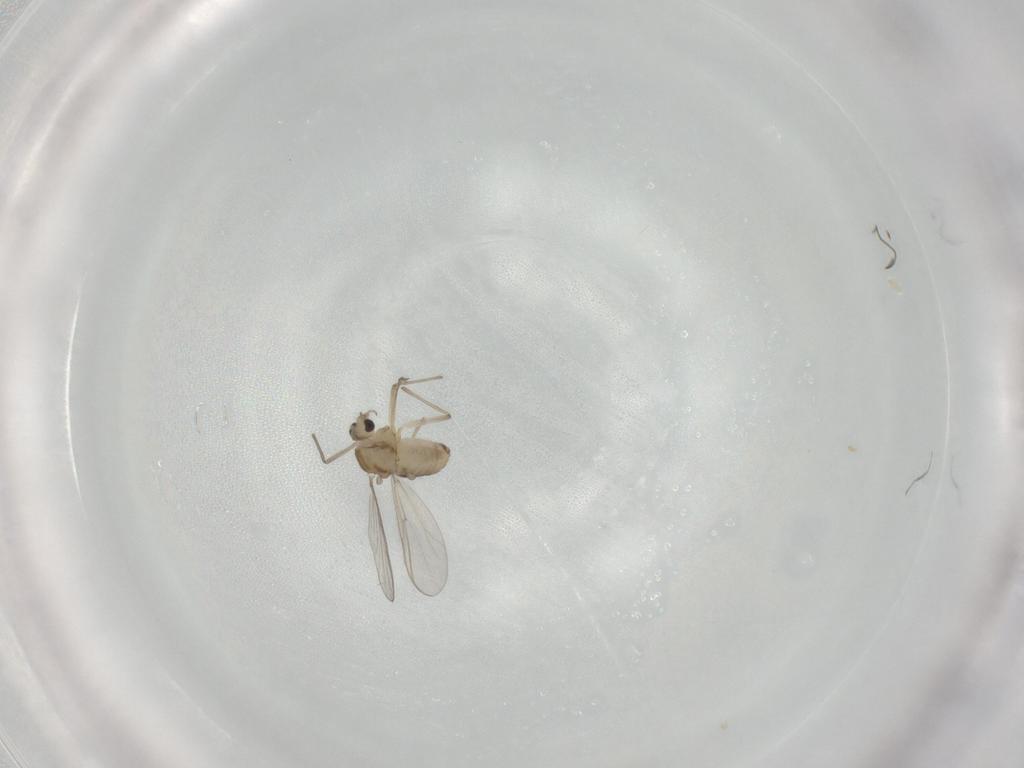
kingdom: Animalia
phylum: Arthropoda
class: Insecta
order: Diptera
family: Chironomidae
